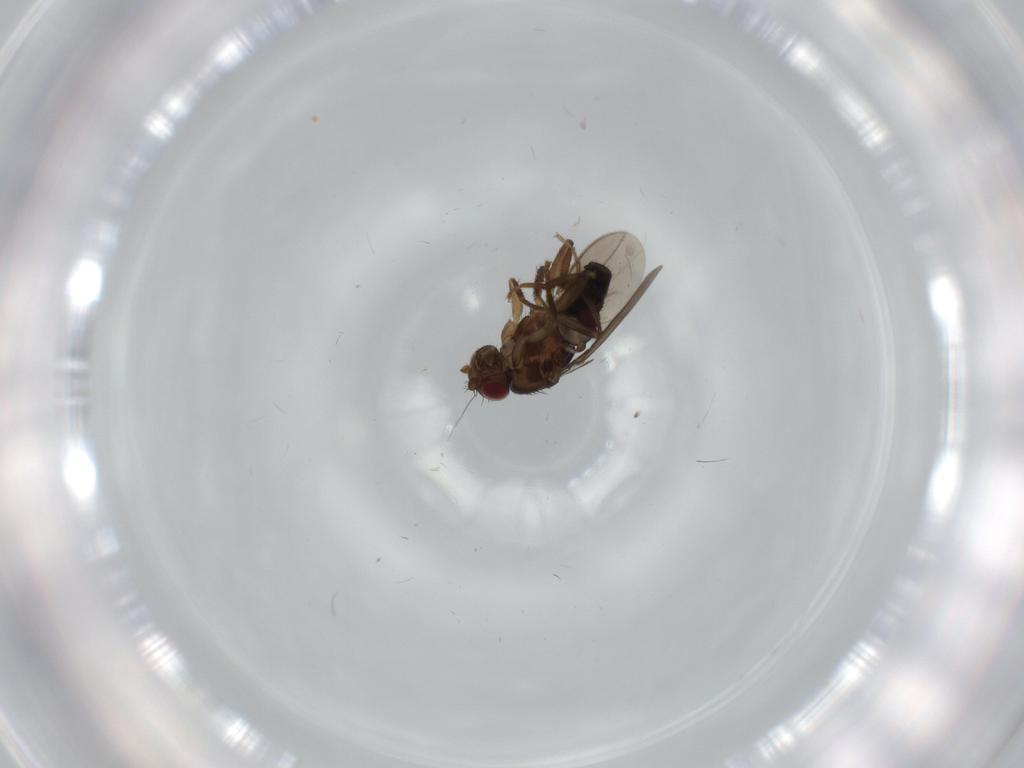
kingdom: Animalia
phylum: Arthropoda
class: Insecta
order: Diptera
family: Sphaeroceridae
